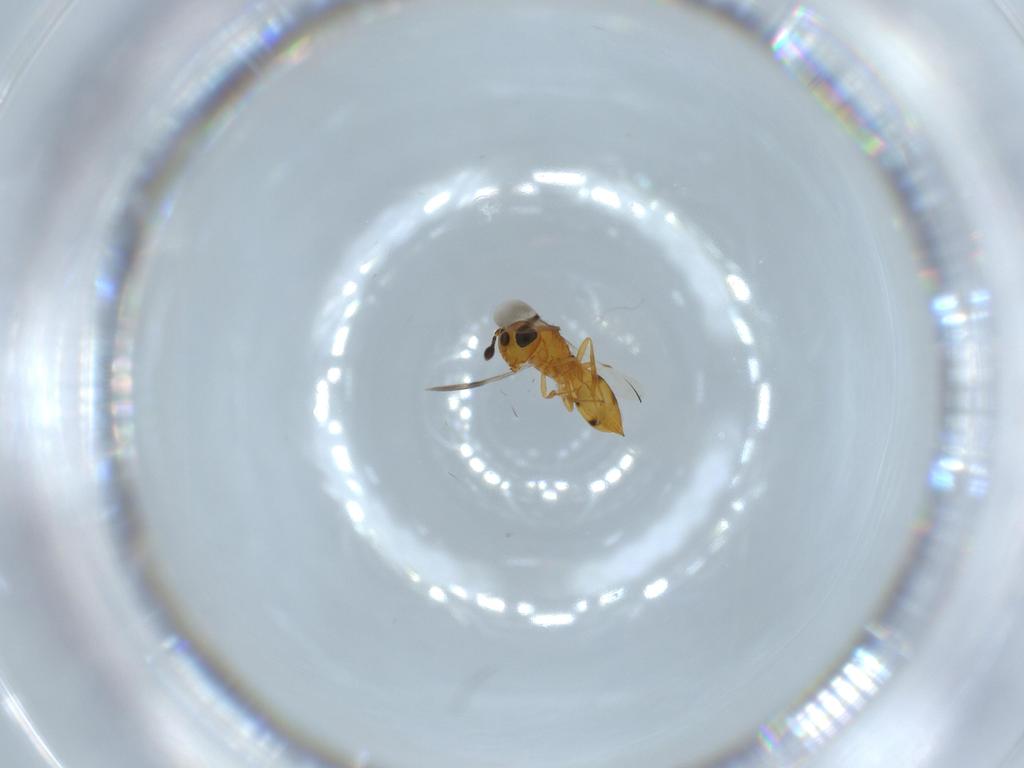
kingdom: Animalia
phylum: Arthropoda
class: Insecta
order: Hymenoptera
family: Scelionidae
